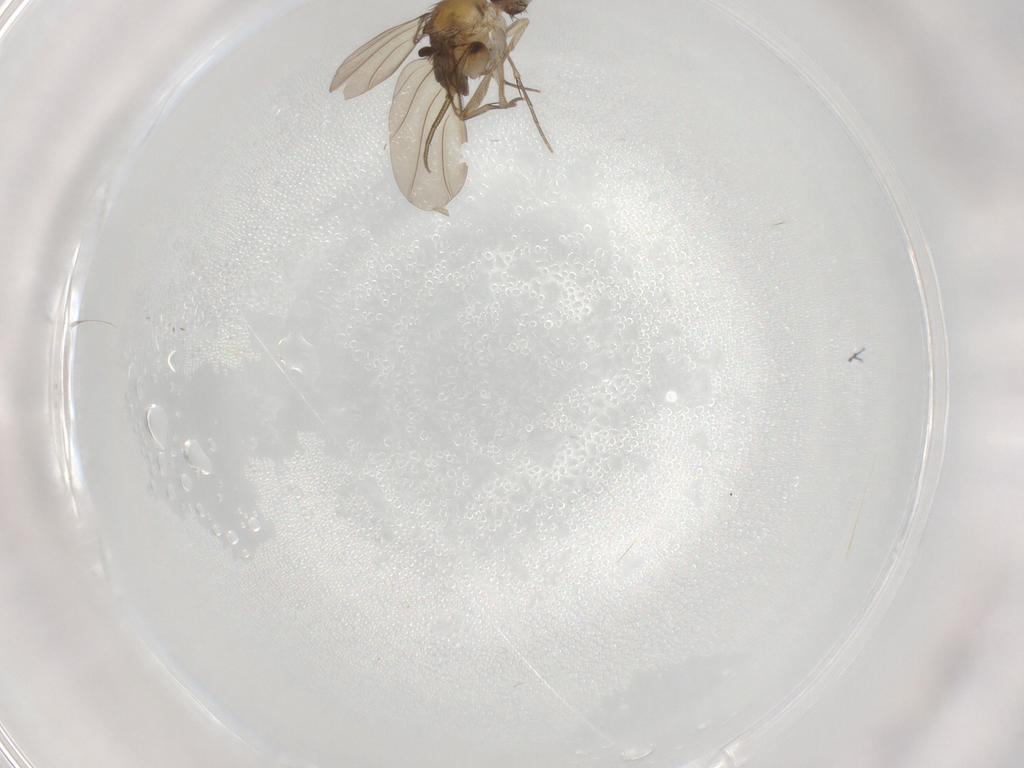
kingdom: Animalia
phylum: Arthropoda
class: Insecta
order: Diptera
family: Phoridae
